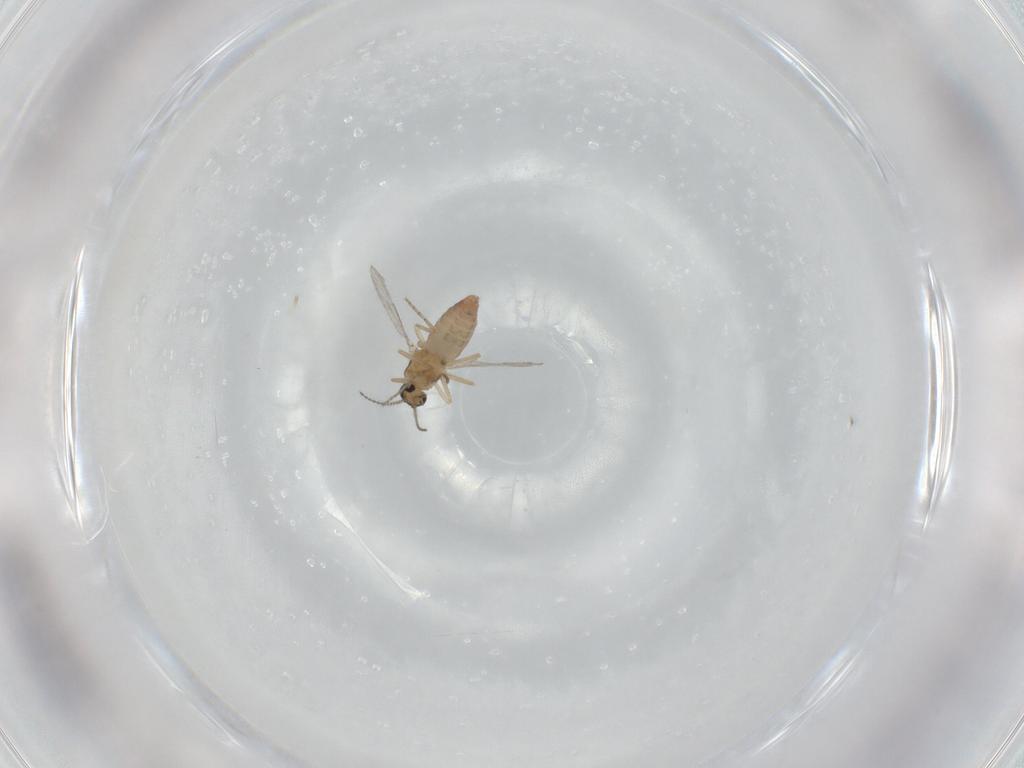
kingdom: Animalia
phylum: Arthropoda
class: Insecta
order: Diptera
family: Ceratopogonidae
